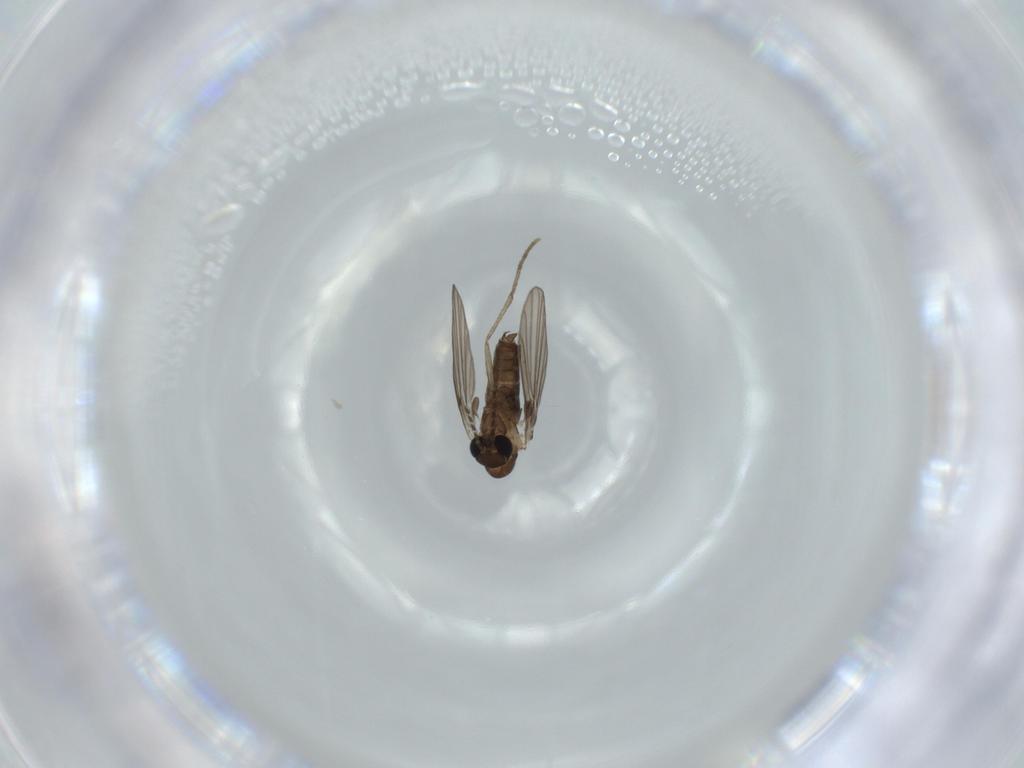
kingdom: Animalia
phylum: Arthropoda
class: Insecta
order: Diptera
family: Psychodidae
